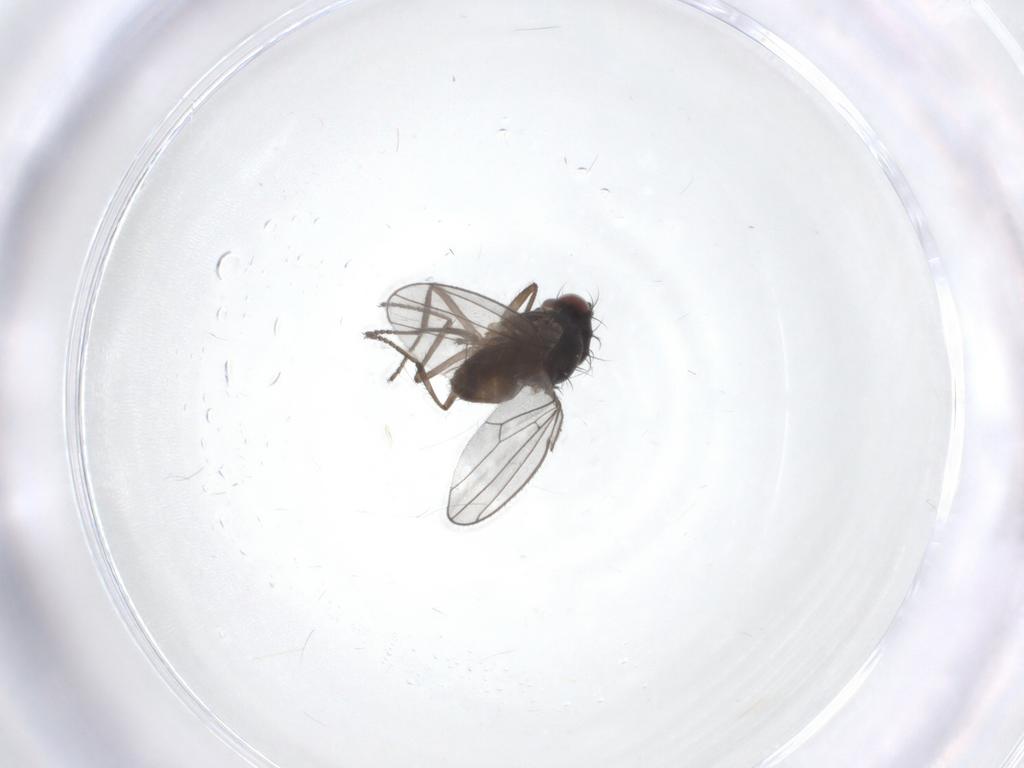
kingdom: Animalia
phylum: Arthropoda
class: Insecta
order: Diptera
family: Ephydridae
